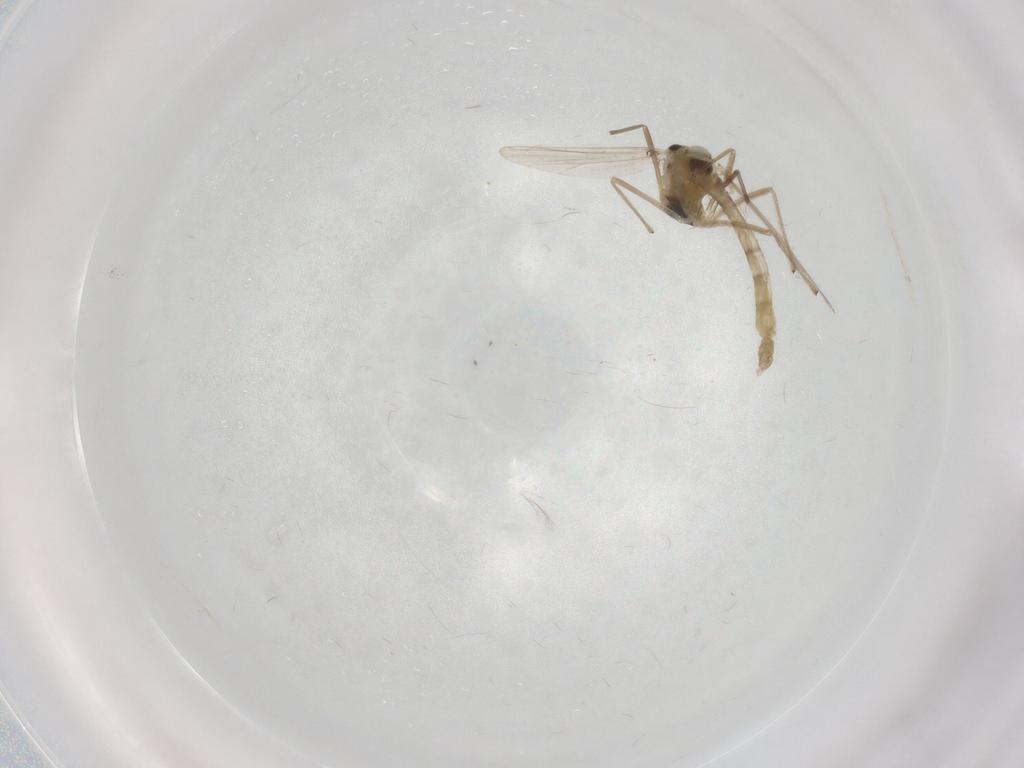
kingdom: Animalia
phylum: Arthropoda
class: Insecta
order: Diptera
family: Chironomidae
